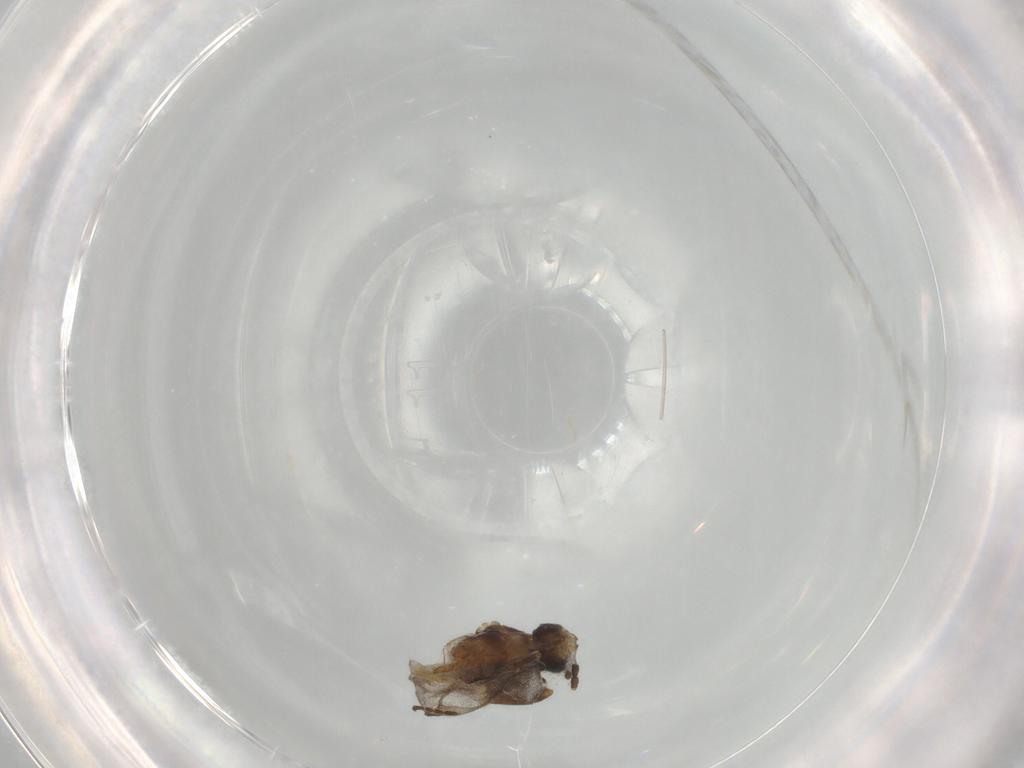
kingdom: Animalia
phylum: Arthropoda
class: Insecta
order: Hymenoptera
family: Braconidae
